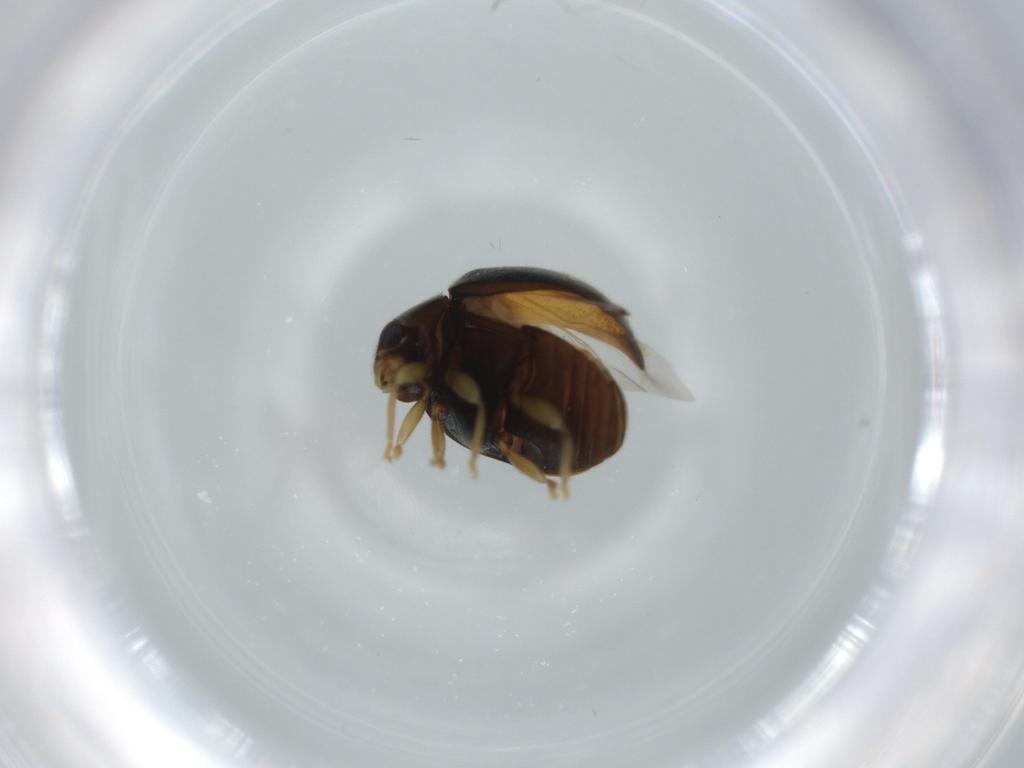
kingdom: Animalia
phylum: Arthropoda
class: Insecta
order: Coleoptera
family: Coccinellidae
